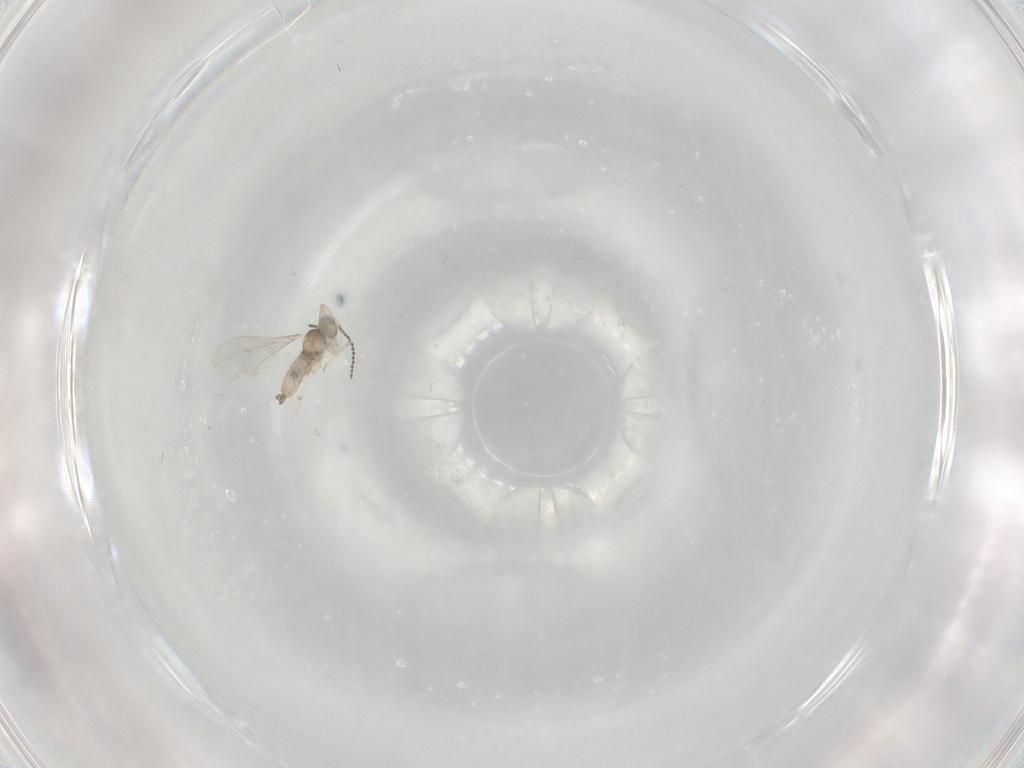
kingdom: Animalia
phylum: Arthropoda
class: Insecta
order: Diptera
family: Cecidomyiidae
